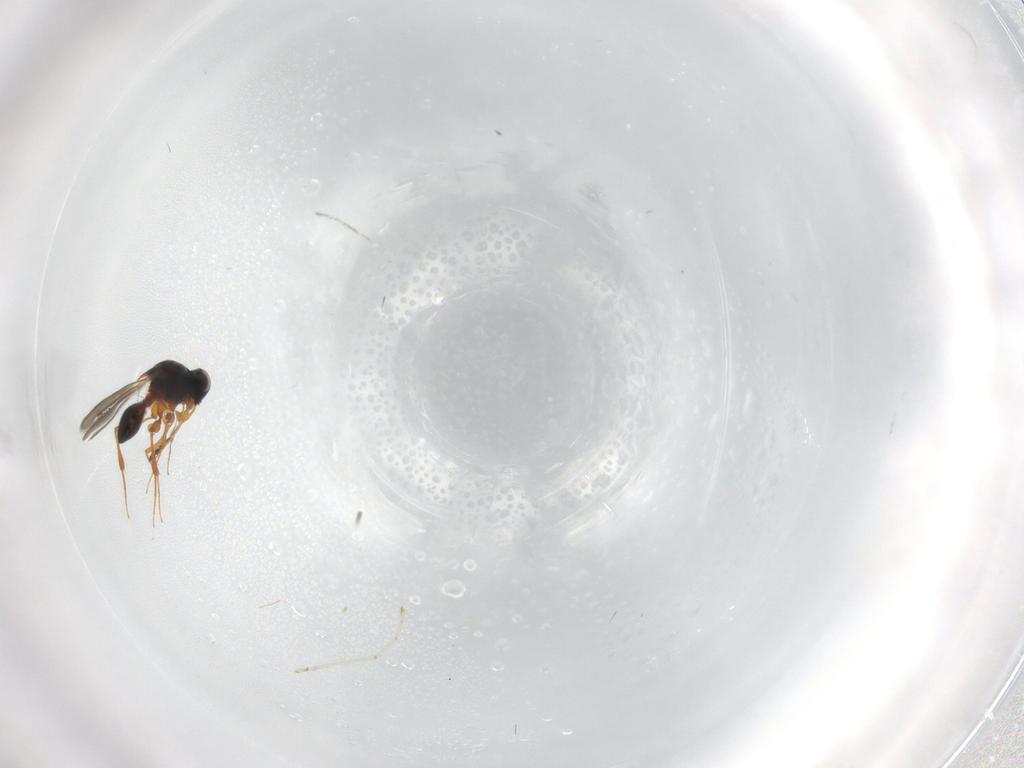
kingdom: Animalia
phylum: Arthropoda
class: Insecta
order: Hymenoptera
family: Platygastridae
